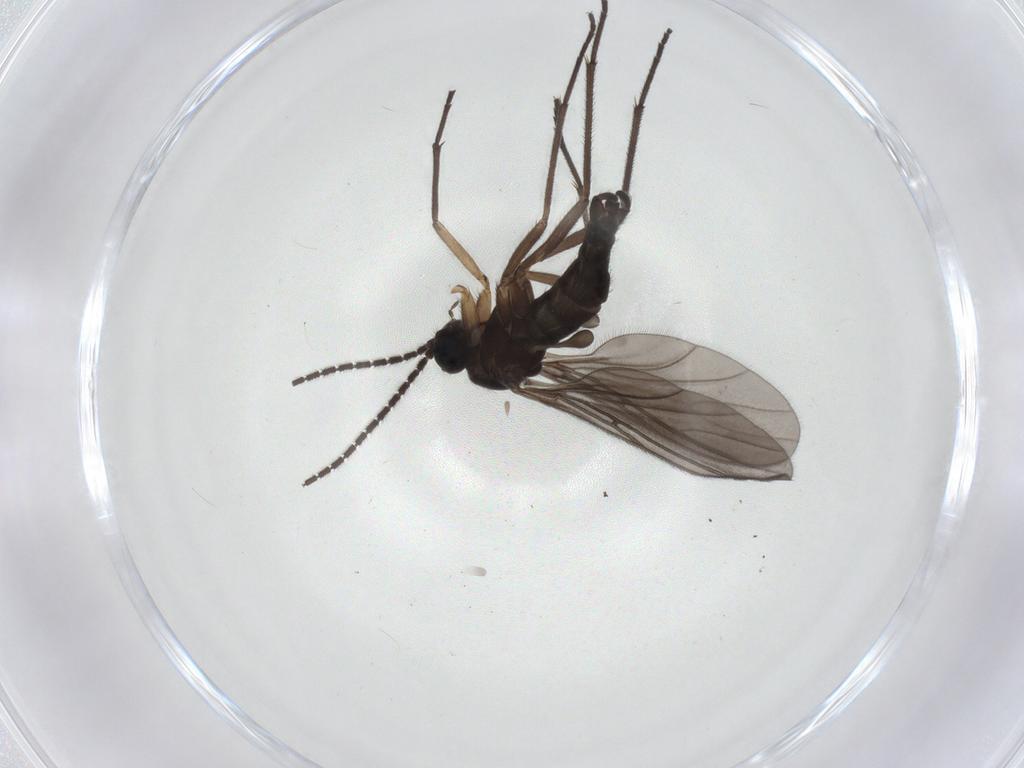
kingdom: Animalia
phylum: Arthropoda
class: Insecta
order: Diptera
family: Sciaridae
